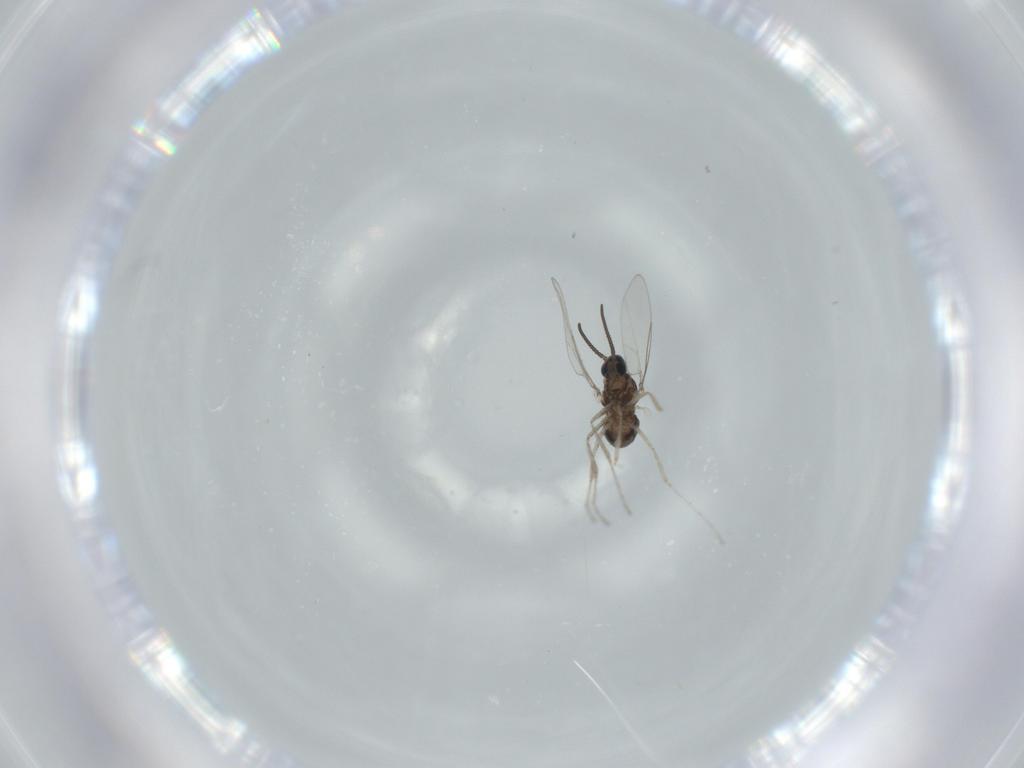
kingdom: Animalia
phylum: Arthropoda
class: Insecta
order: Diptera
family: Cecidomyiidae
